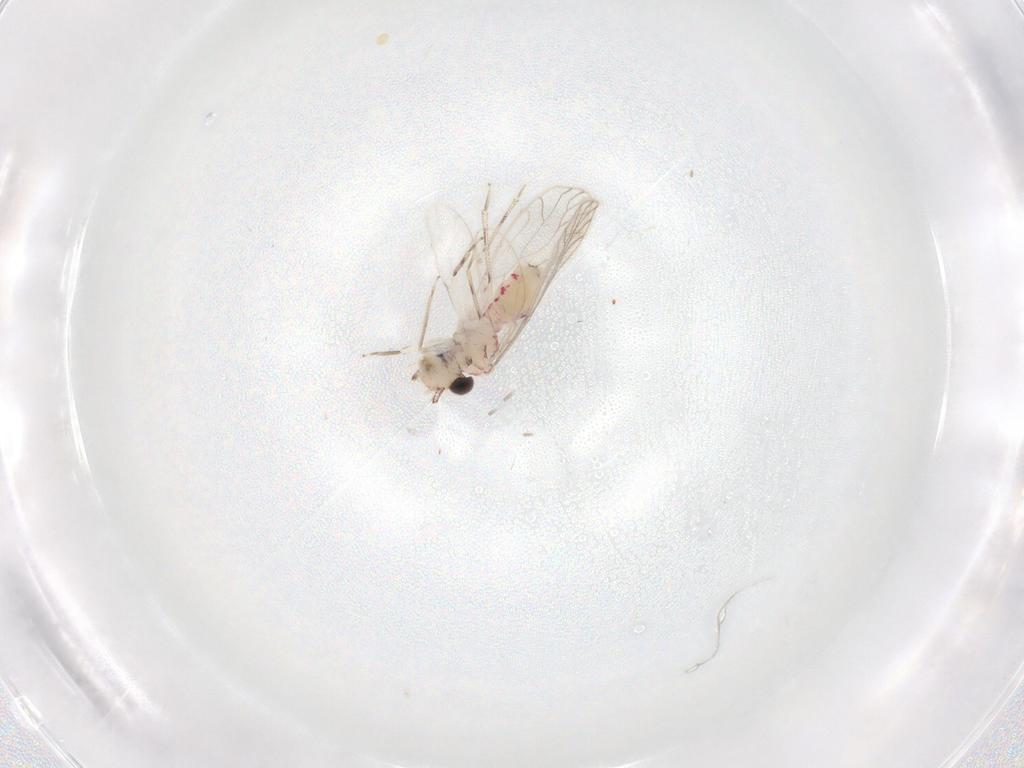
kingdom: Animalia
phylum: Arthropoda
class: Insecta
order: Psocodea
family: Caeciliusidae
